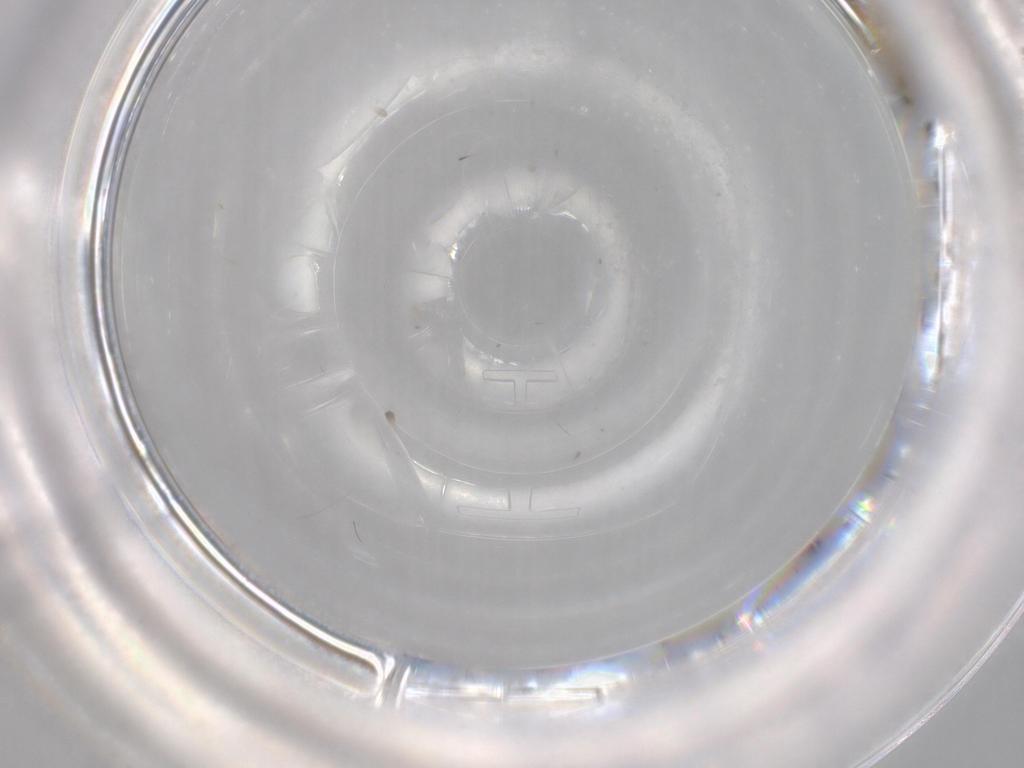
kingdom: Animalia
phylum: Arthropoda
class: Insecta
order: Diptera
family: Cecidomyiidae
